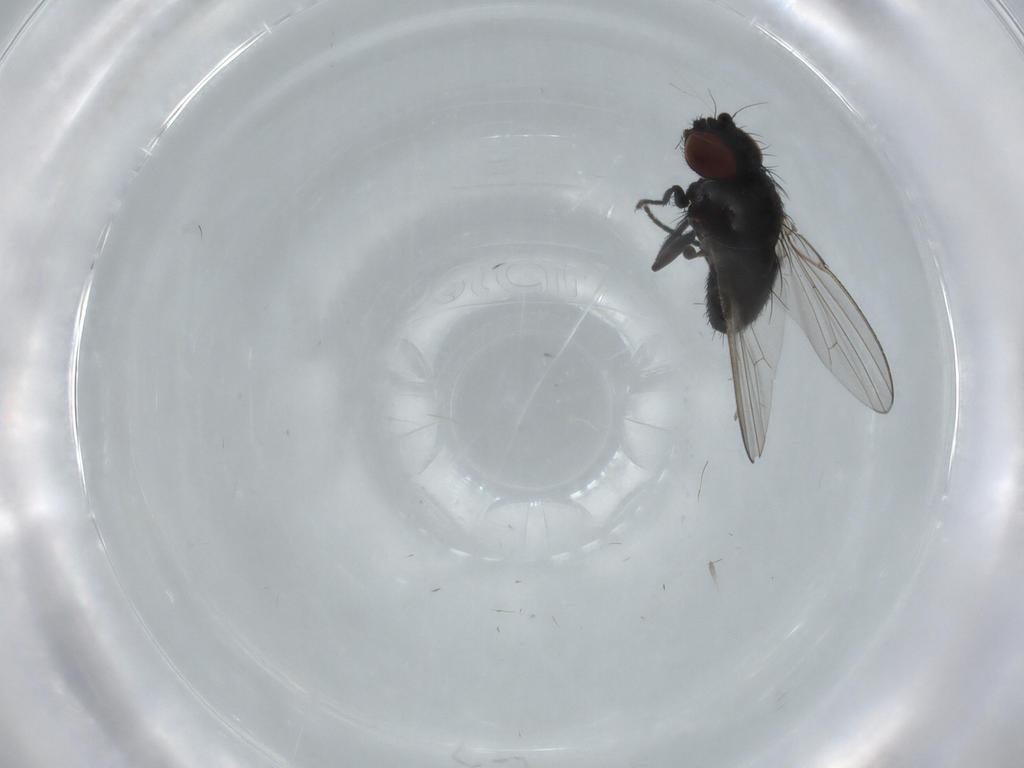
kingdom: Animalia
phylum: Arthropoda
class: Insecta
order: Diptera
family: Milichiidae
